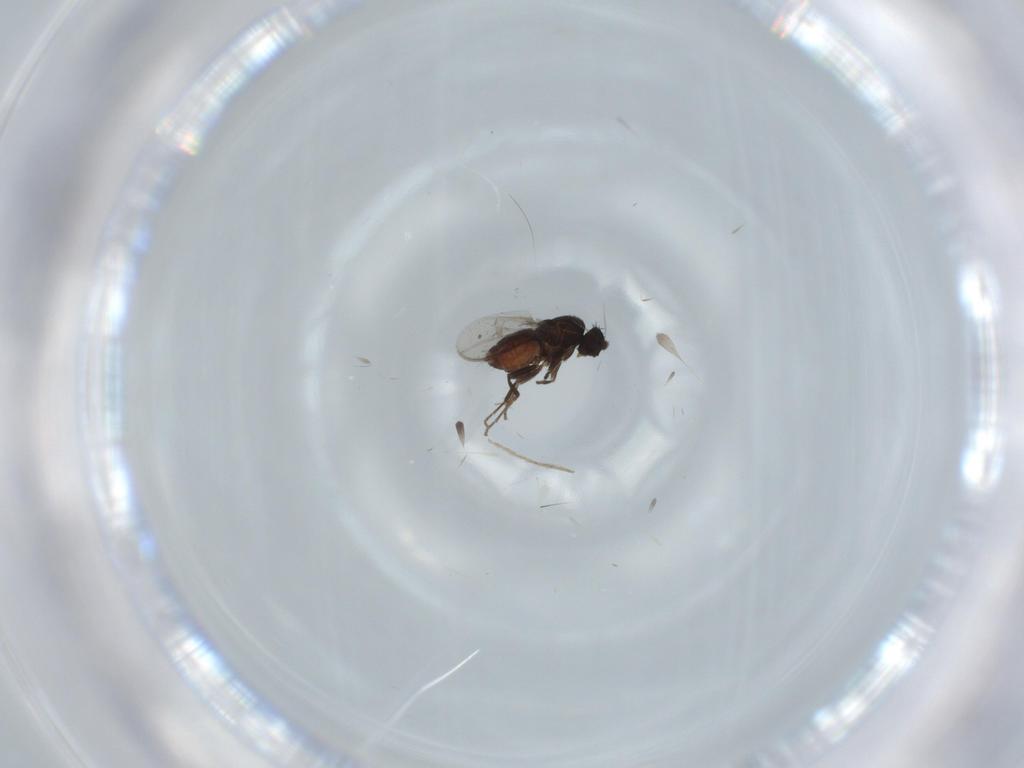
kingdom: Animalia
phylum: Arthropoda
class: Insecta
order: Diptera
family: Sphaeroceridae
